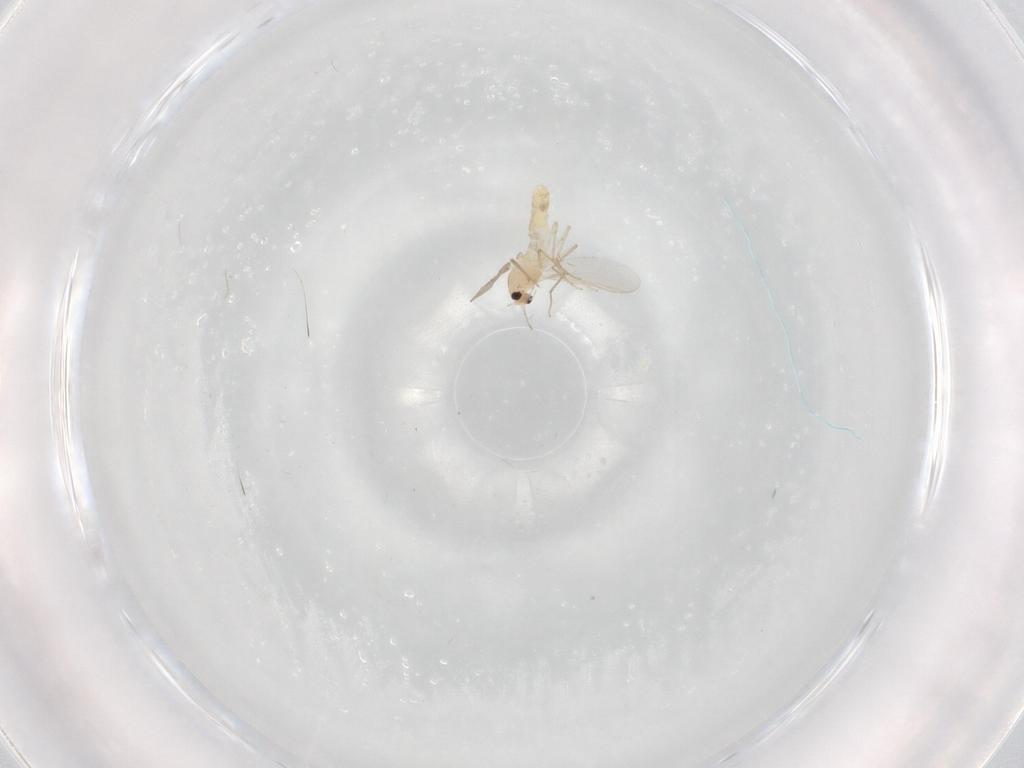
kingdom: Animalia
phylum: Arthropoda
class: Insecta
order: Diptera
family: Chironomidae
